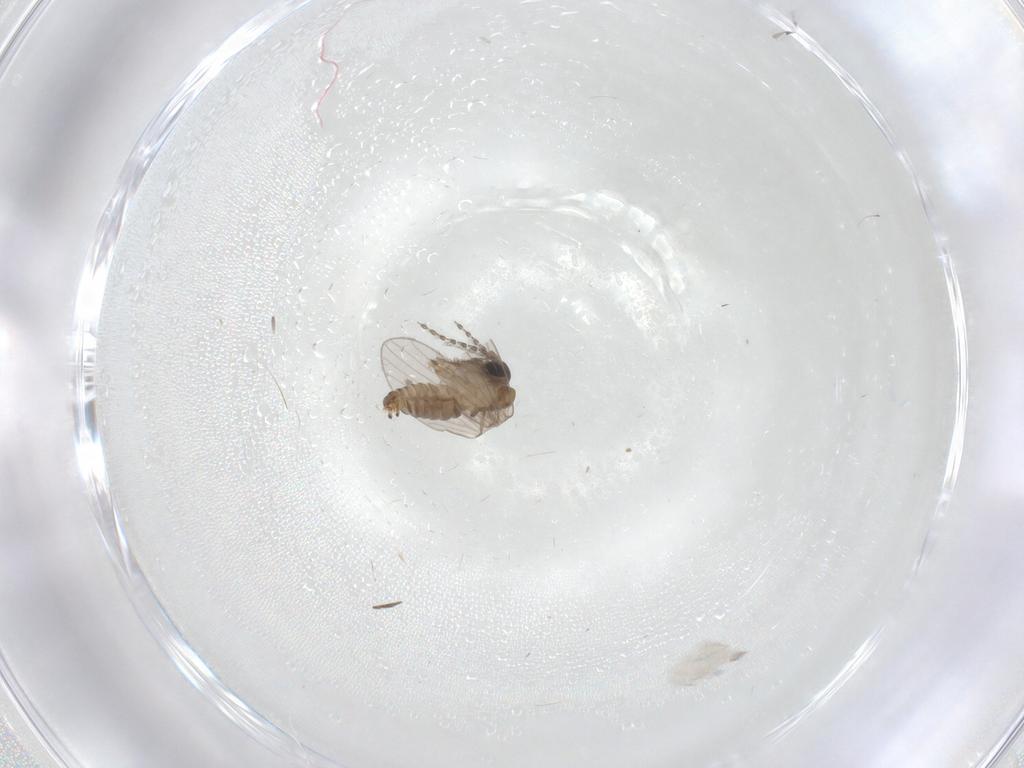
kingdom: Animalia
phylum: Arthropoda
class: Insecta
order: Diptera
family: Psychodidae
